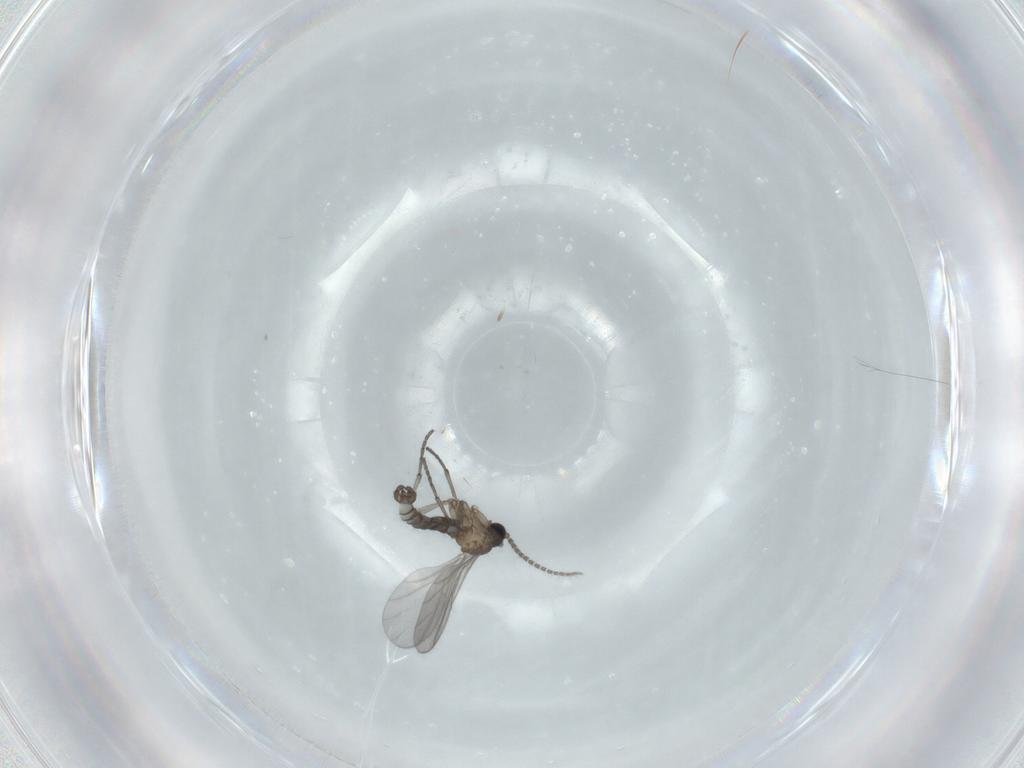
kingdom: Animalia
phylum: Arthropoda
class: Insecta
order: Diptera
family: Sciaridae
